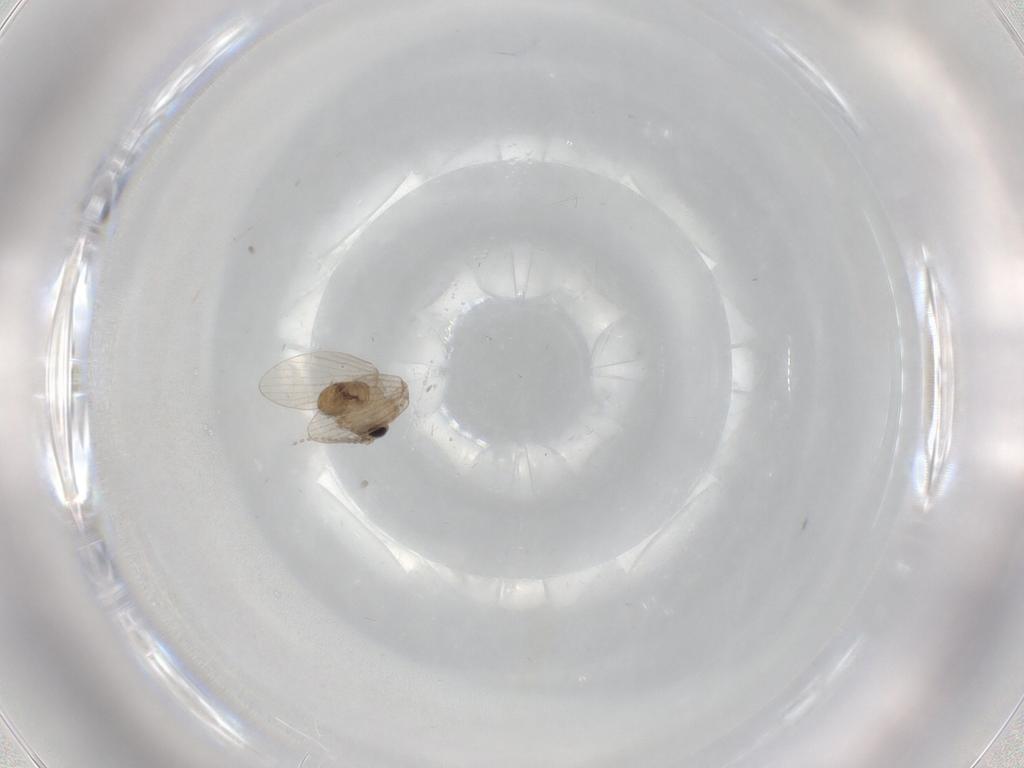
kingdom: Animalia
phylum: Arthropoda
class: Insecta
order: Diptera
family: Psychodidae
